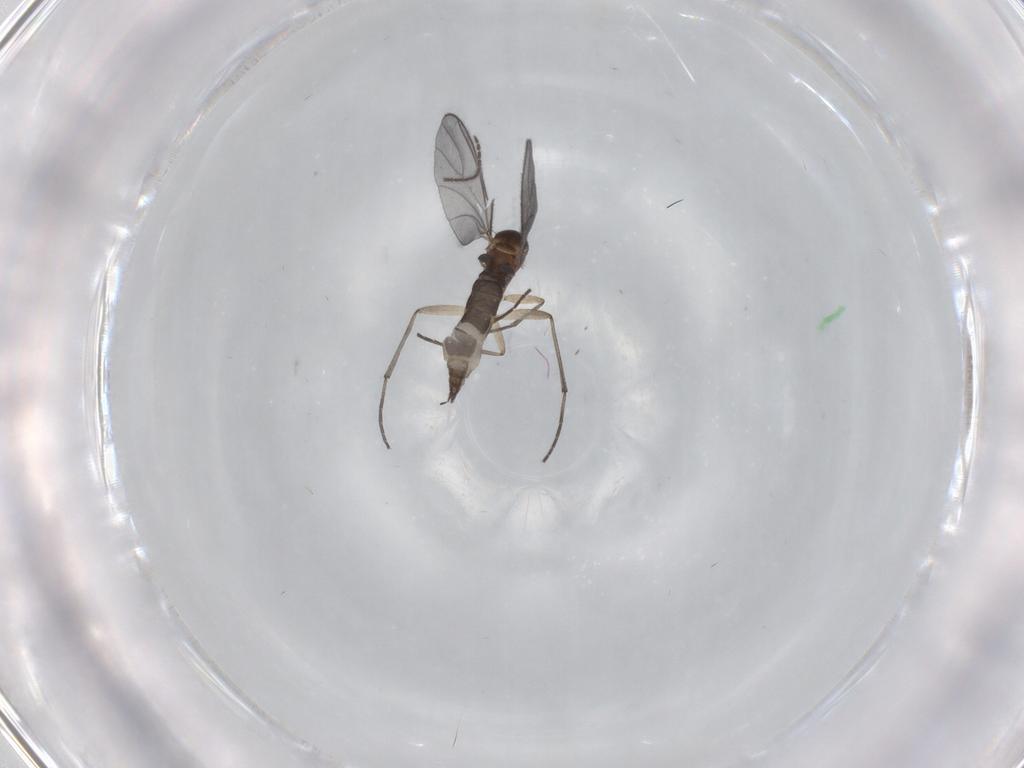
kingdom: Animalia
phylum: Arthropoda
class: Insecta
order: Diptera
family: Sciaridae
